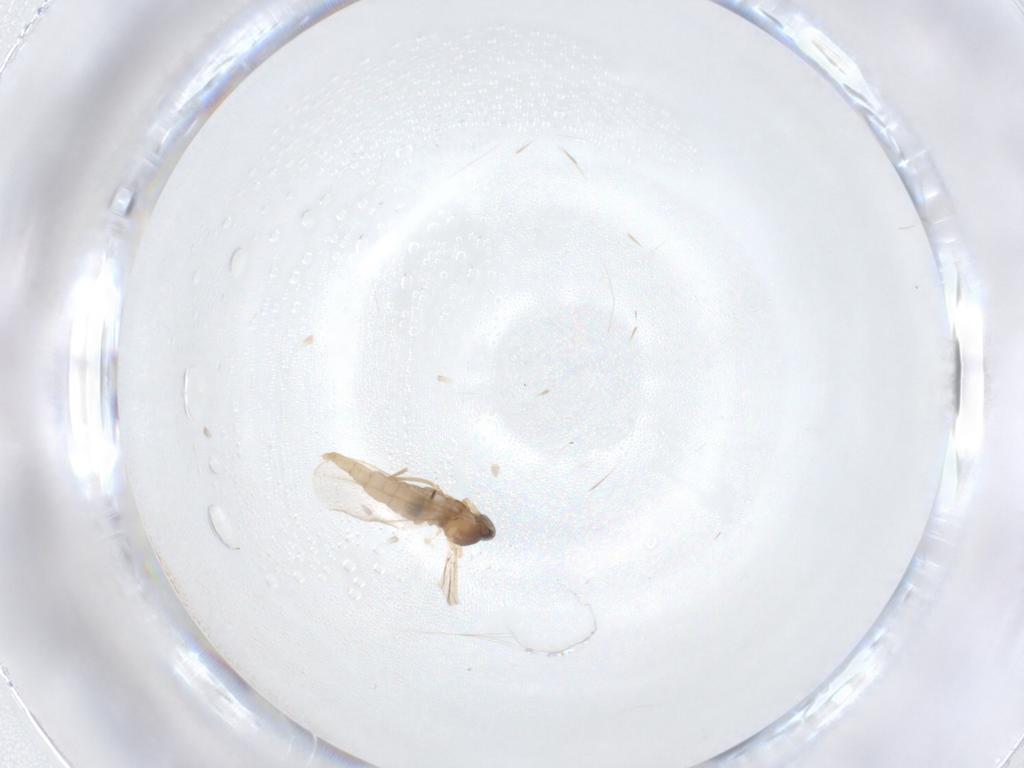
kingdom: Animalia
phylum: Arthropoda
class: Insecta
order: Diptera
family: Cecidomyiidae
